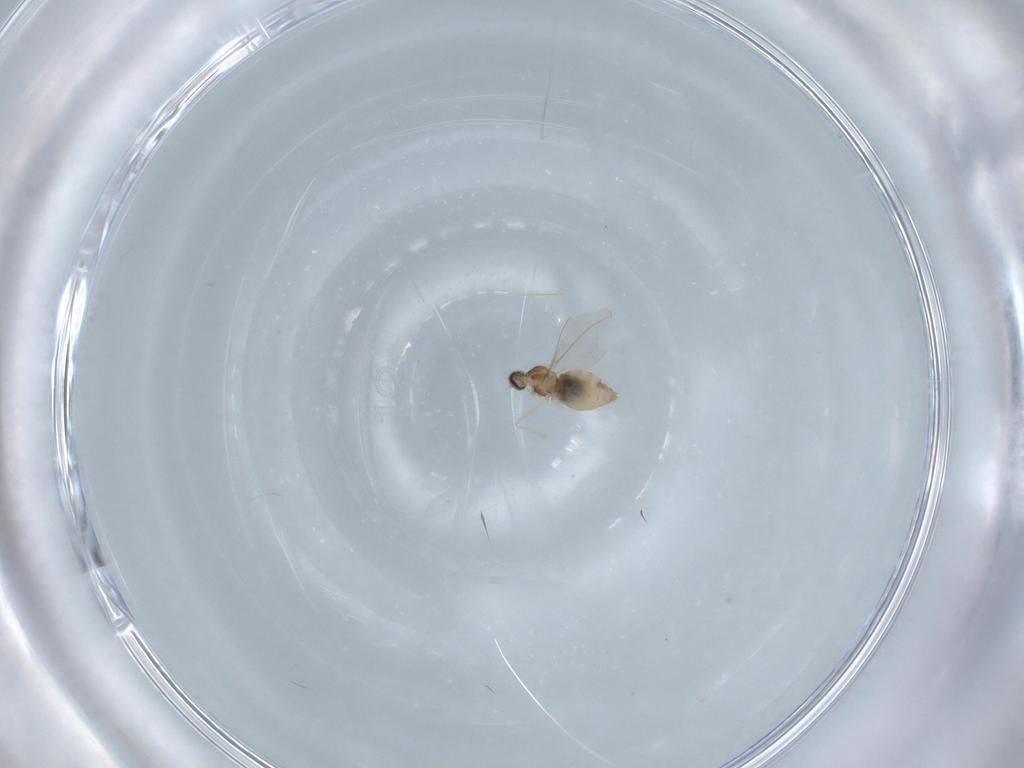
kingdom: Animalia
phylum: Arthropoda
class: Insecta
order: Diptera
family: Cecidomyiidae
